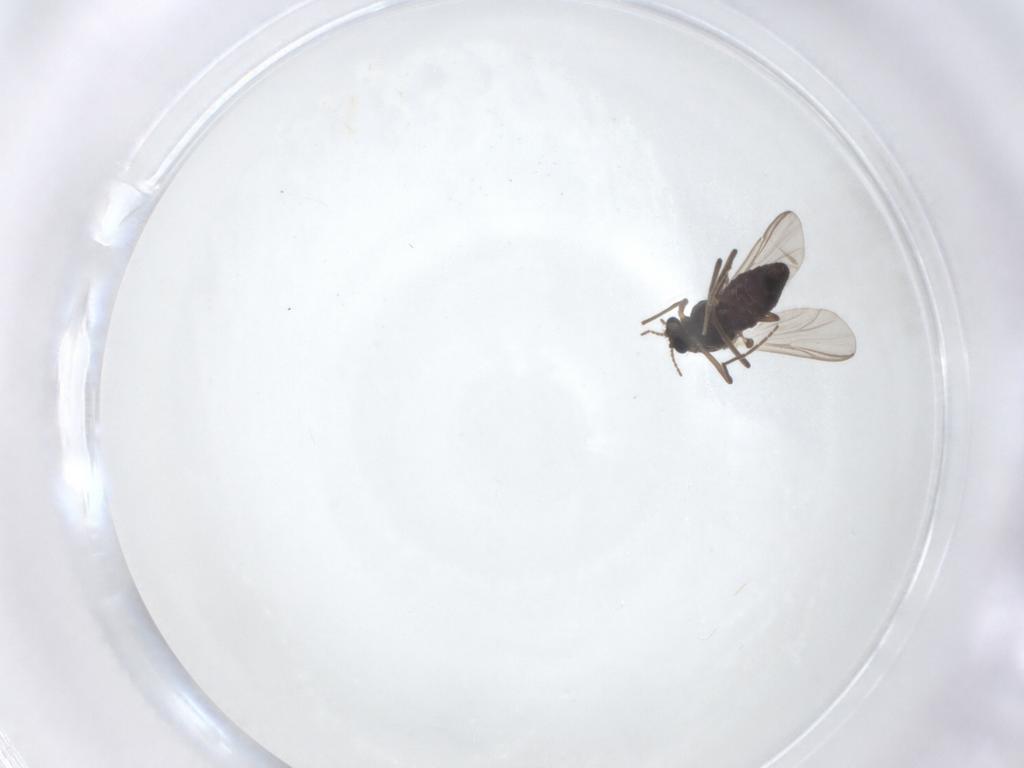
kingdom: Animalia
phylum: Arthropoda
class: Insecta
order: Diptera
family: Chironomidae
